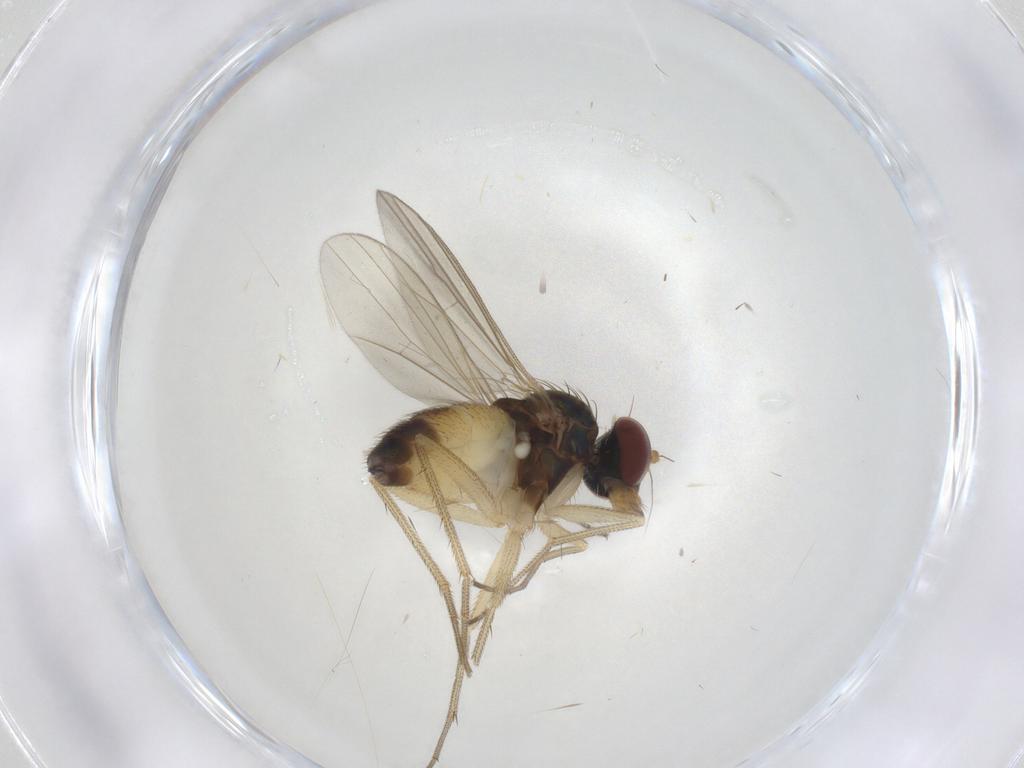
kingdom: Animalia
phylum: Arthropoda
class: Insecta
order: Diptera
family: Dolichopodidae
